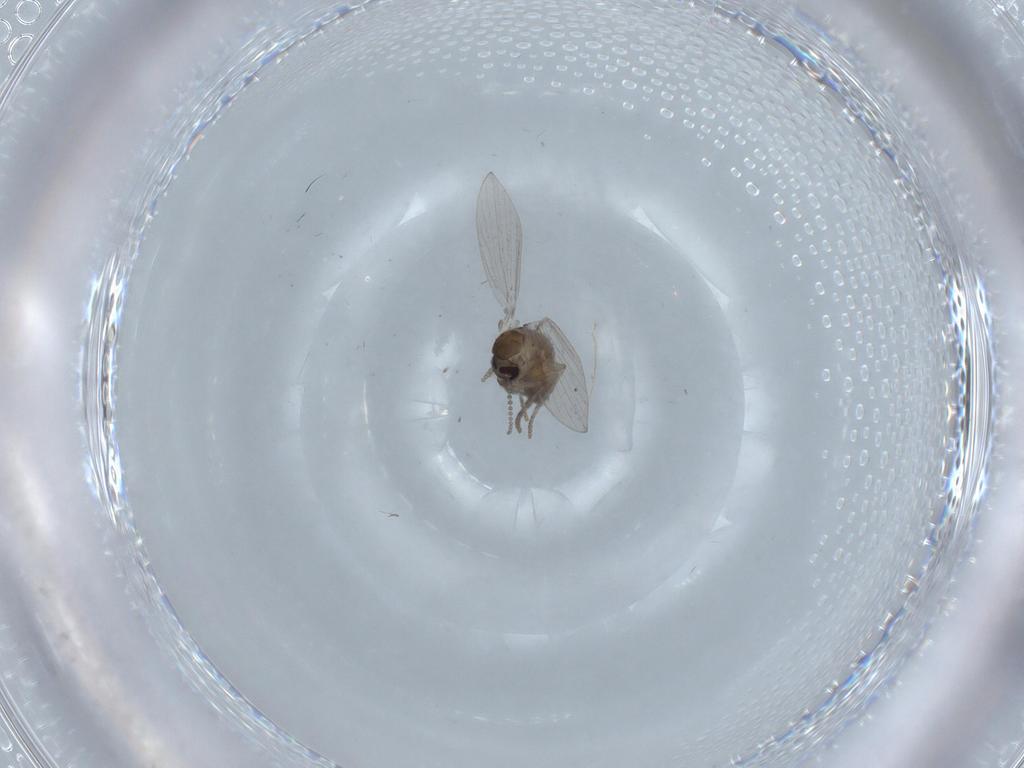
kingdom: Animalia
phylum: Arthropoda
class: Insecta
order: Diptera
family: Psychodidae
